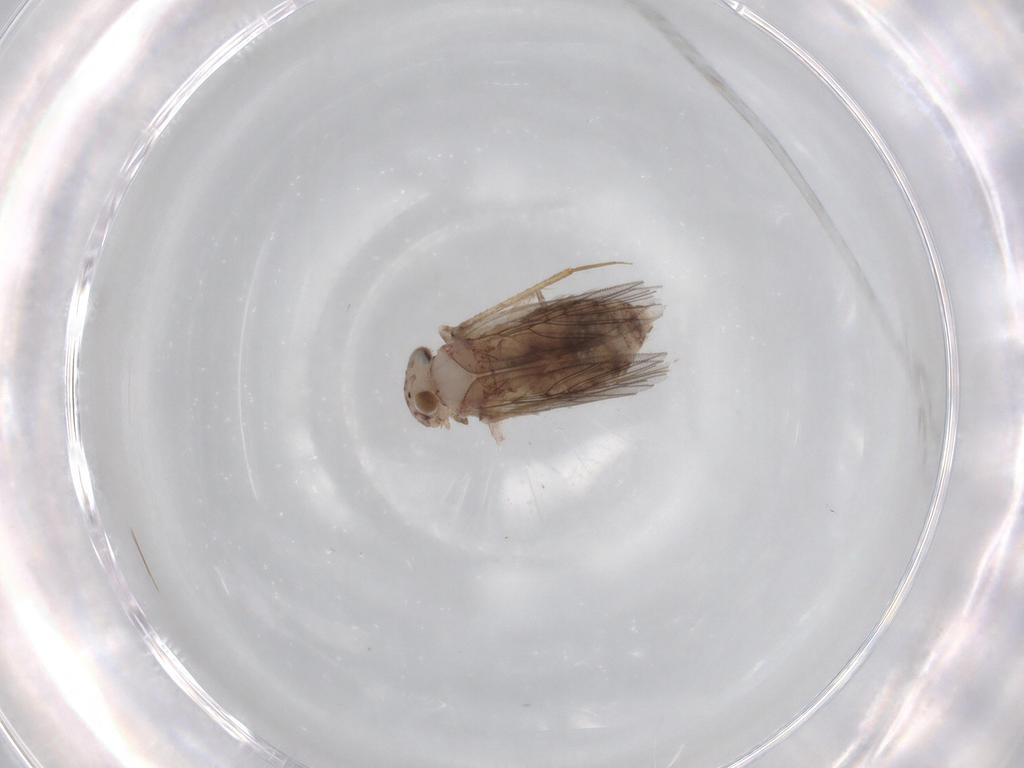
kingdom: Animalia
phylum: Arthropoda
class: Insecta
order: Psocodea
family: Lepidopsocidae
